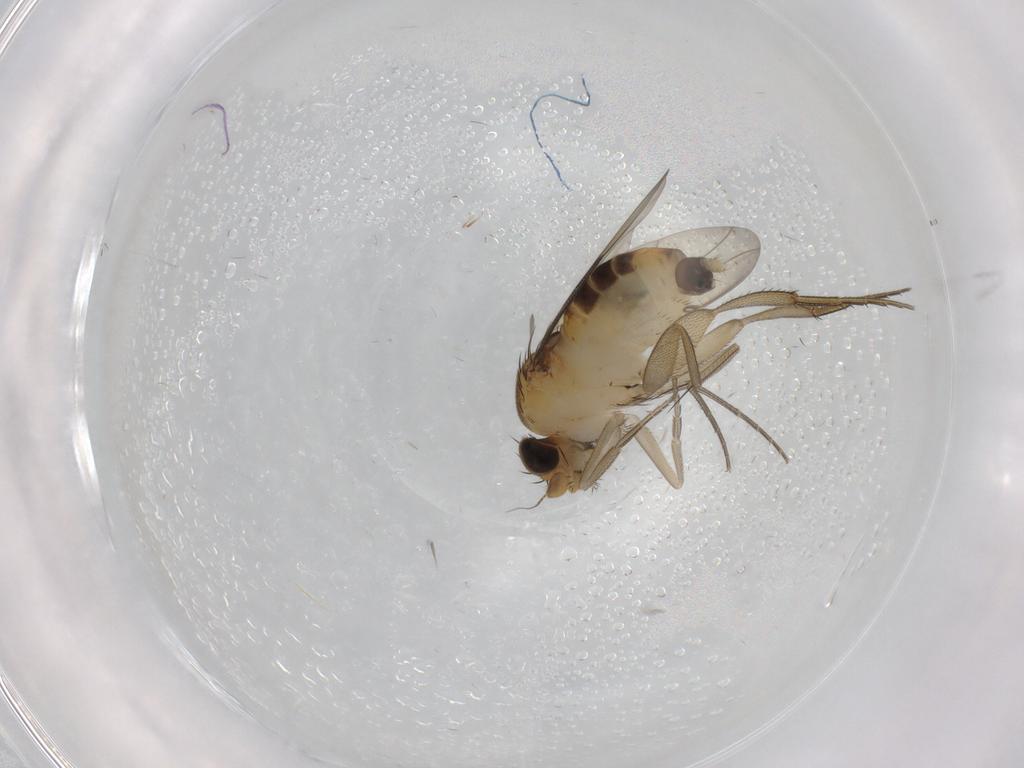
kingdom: Animalia
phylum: Arthropoda
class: Insecta
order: Diptera
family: Phoridae
